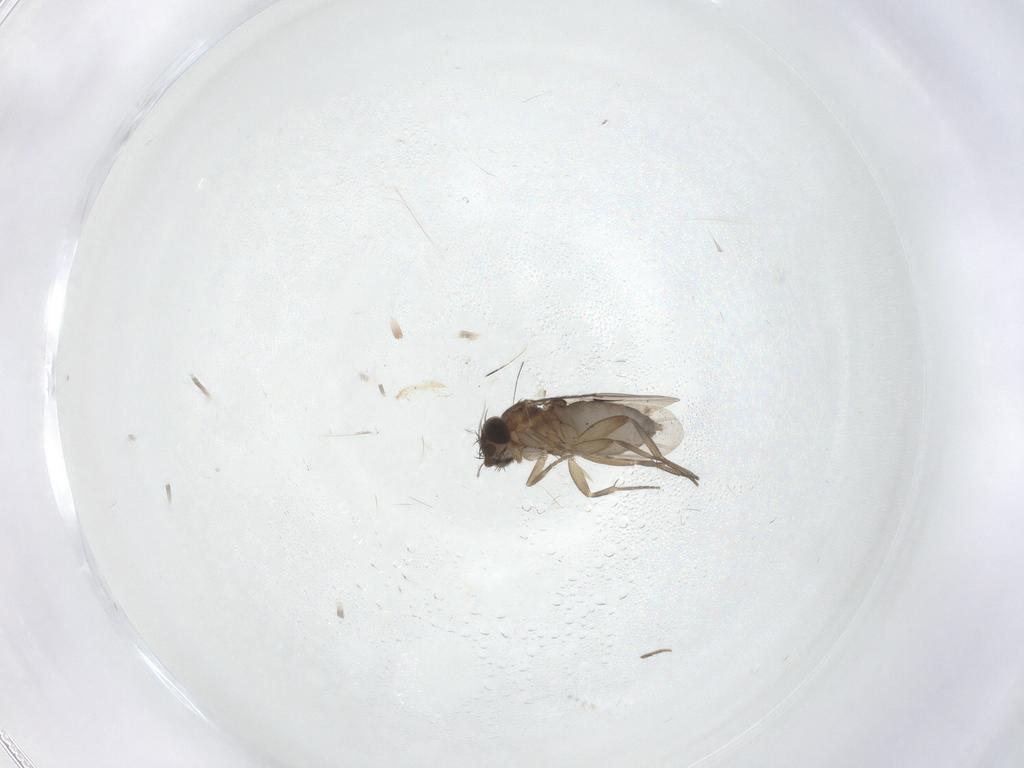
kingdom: Animalia
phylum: Arthropoda
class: Insecta
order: Diptera
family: Phoridae
